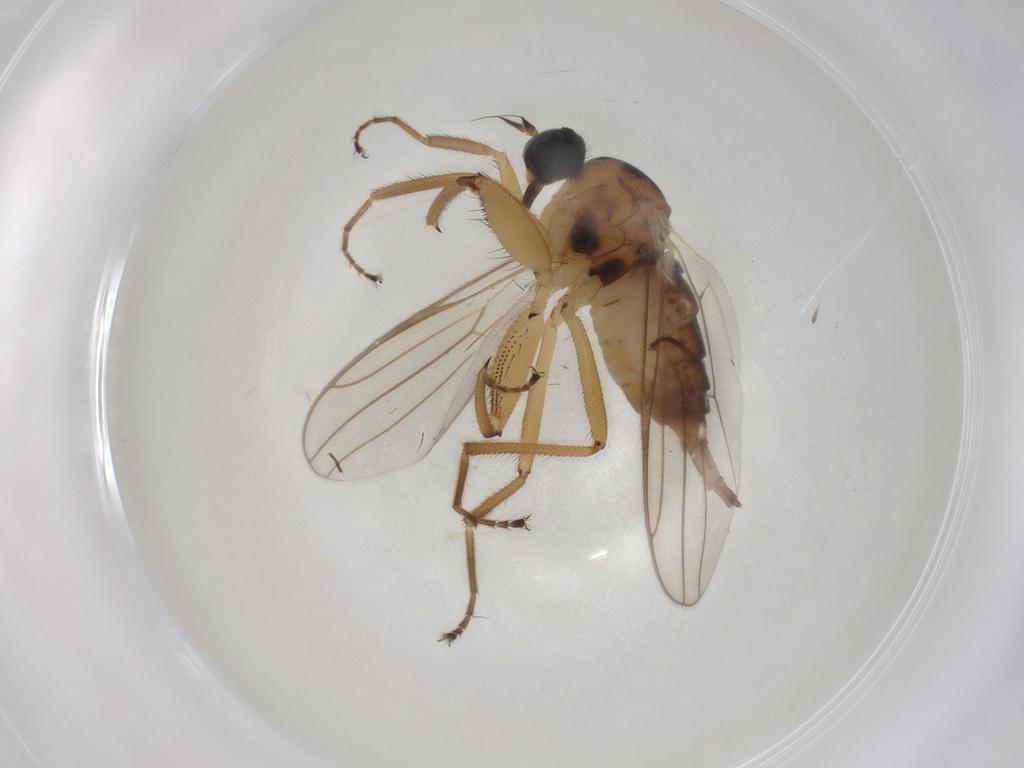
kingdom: Animalia
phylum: Arthropoda
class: Insecta
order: Diptera
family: Hybotidae
